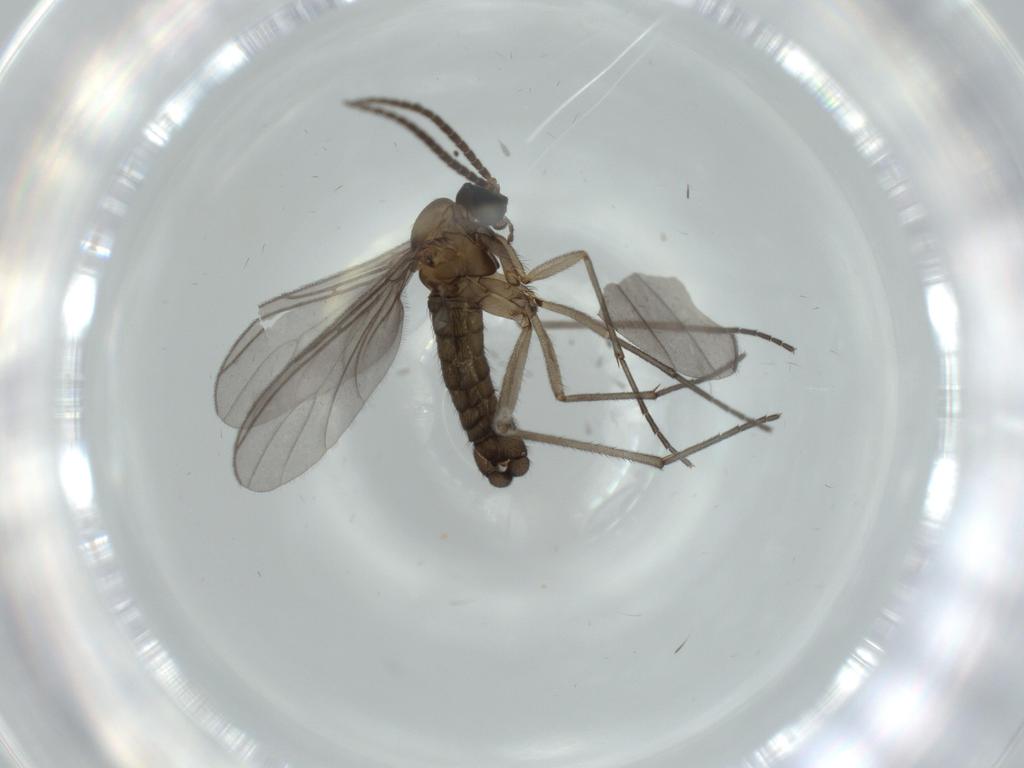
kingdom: Animalia
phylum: Arthropoda
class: Insecta
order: Diptera
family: Sciaridae
